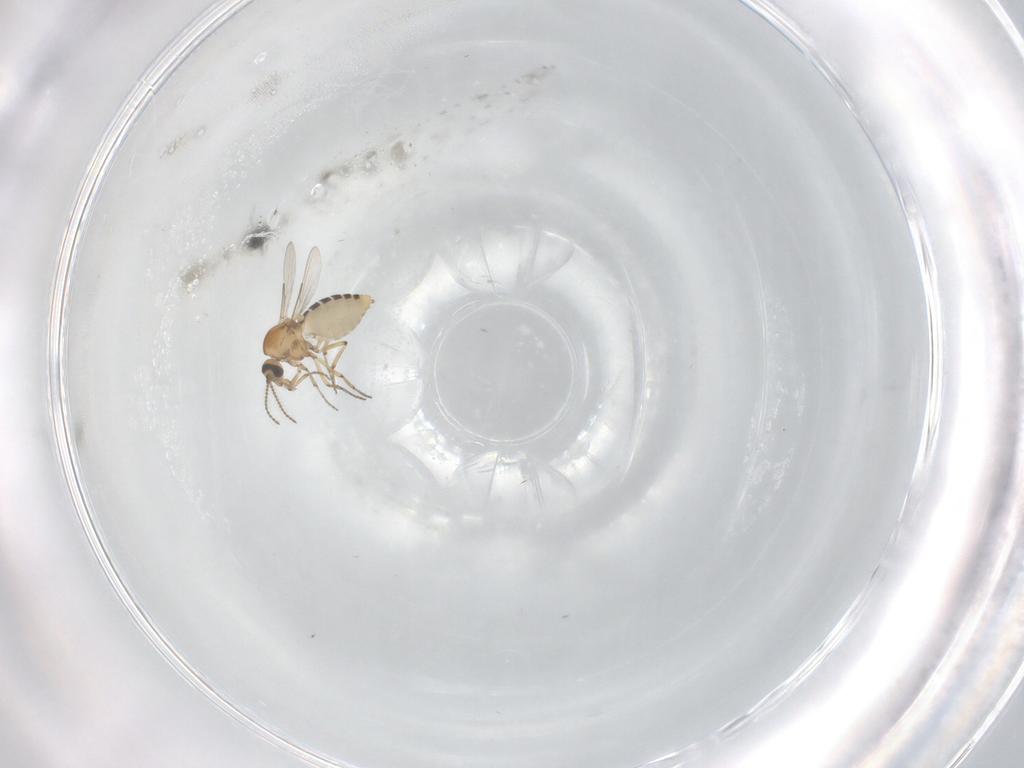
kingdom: Animalia
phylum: Arthropoda
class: Insecta
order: Diptera
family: Ceratopogonidae
